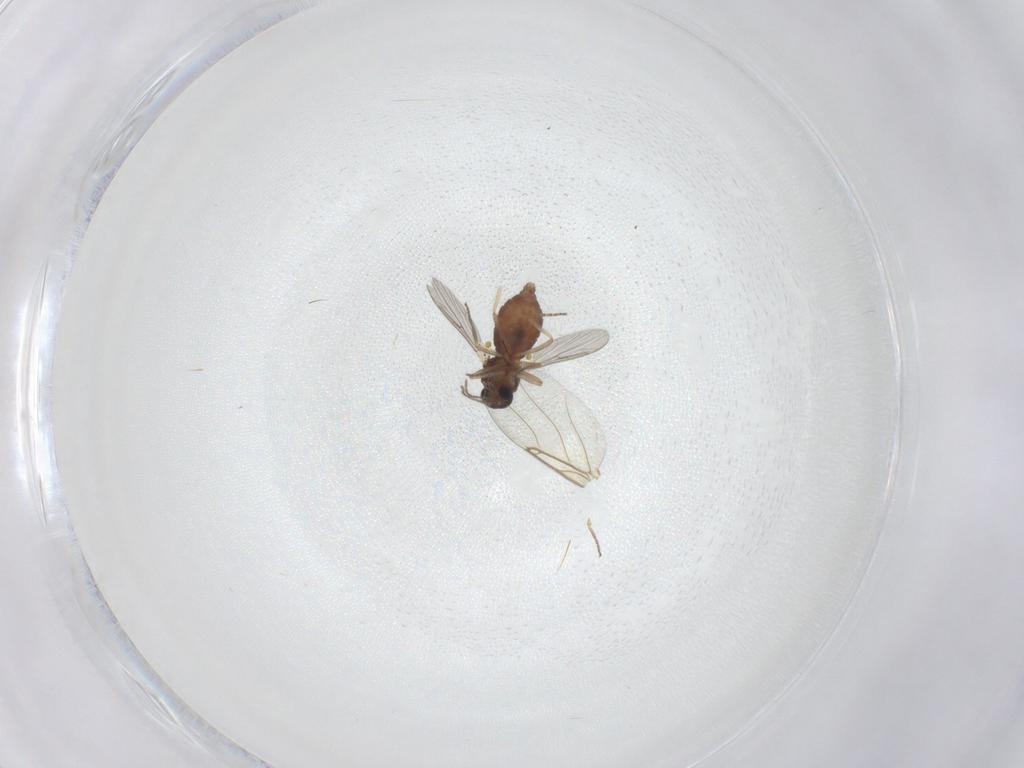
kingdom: Animalia
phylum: Arthropoda
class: Insecta
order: Diptera
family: Ceratopogonidae
